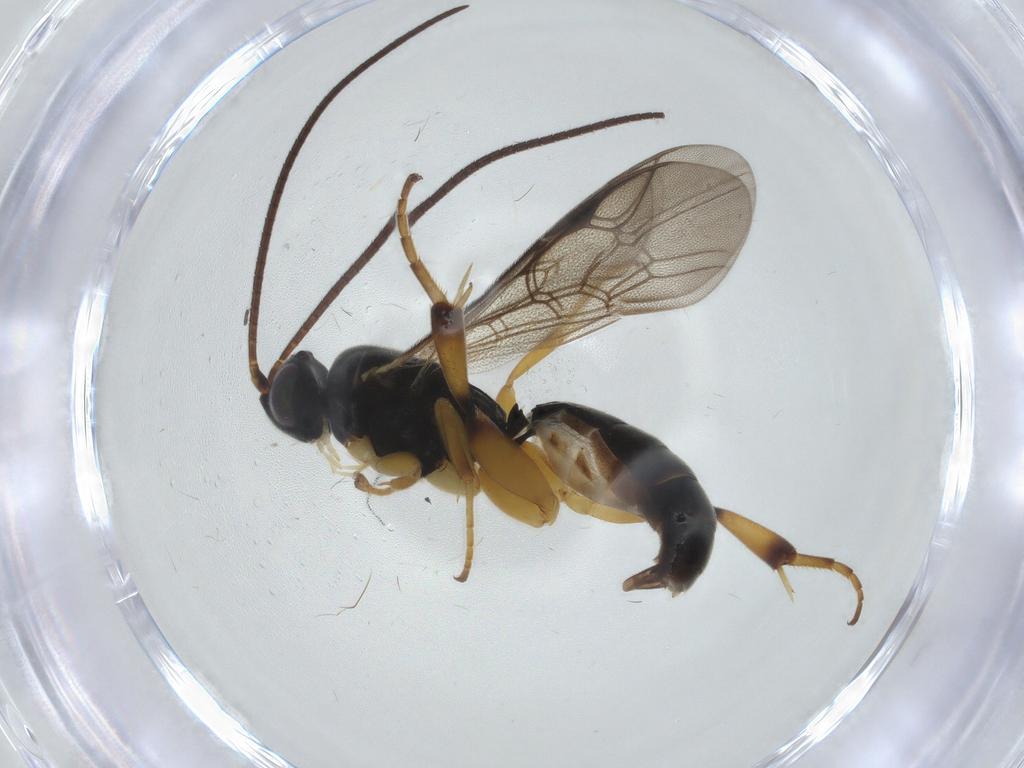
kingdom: Animalia
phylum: Arthropoda
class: Insecta
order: Hymenoptera
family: Ichneumonidae
